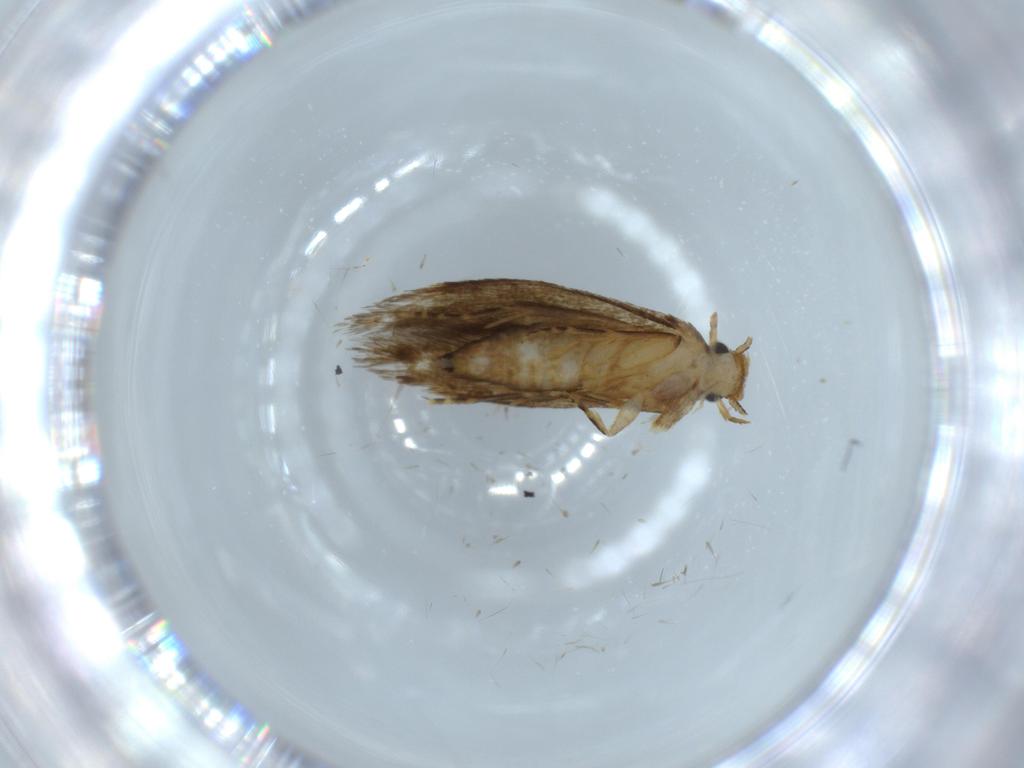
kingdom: Animalia
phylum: Arthropoda
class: Insecta
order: Lepidoptera
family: Tineidae
